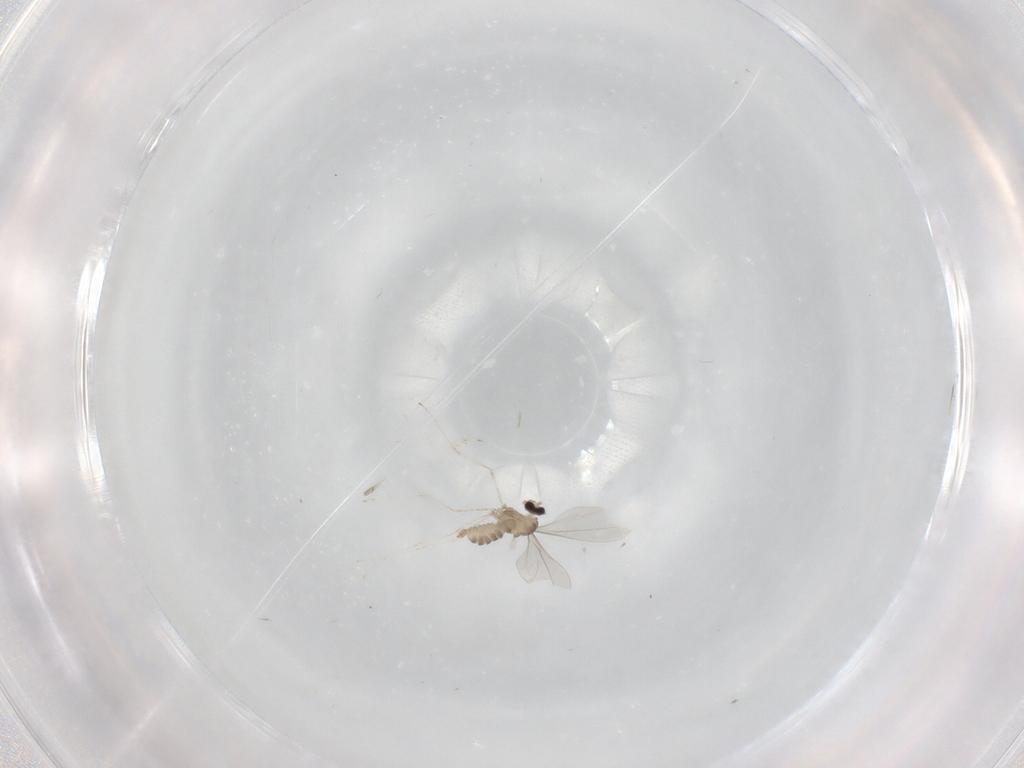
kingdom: Animalia
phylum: Arthropoda
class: Insecta
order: Diptera
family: Cecidomyiidae
